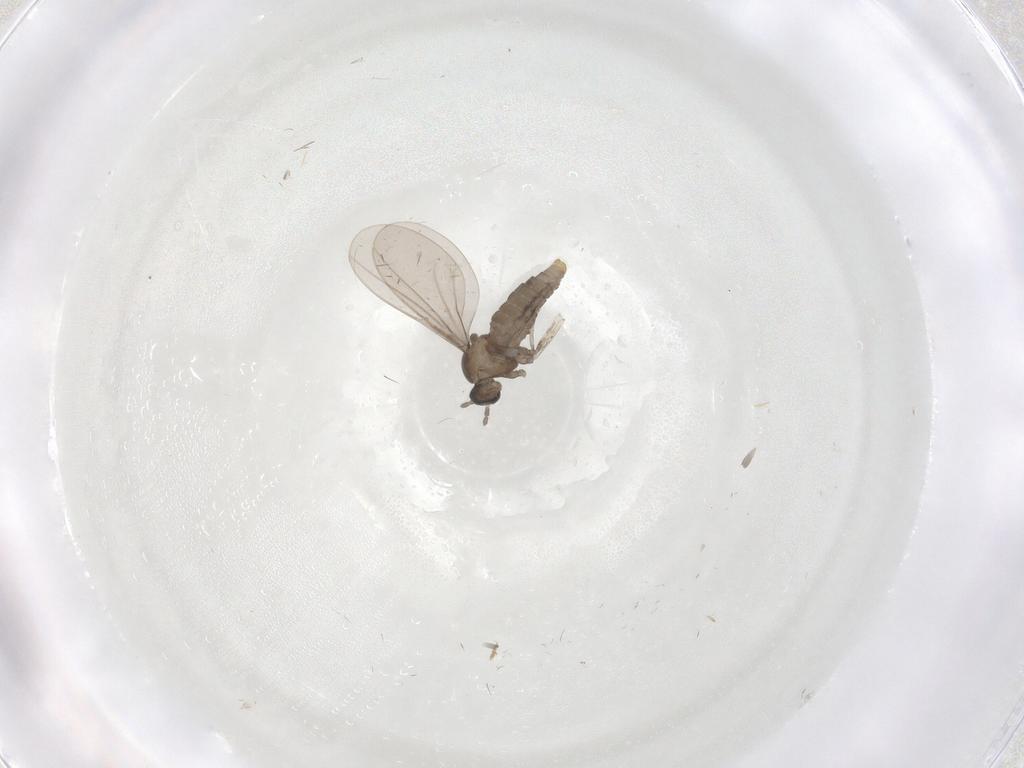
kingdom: Animalia
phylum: Arthropoda
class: Insecta
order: Diptera
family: Cecidomyiidae
